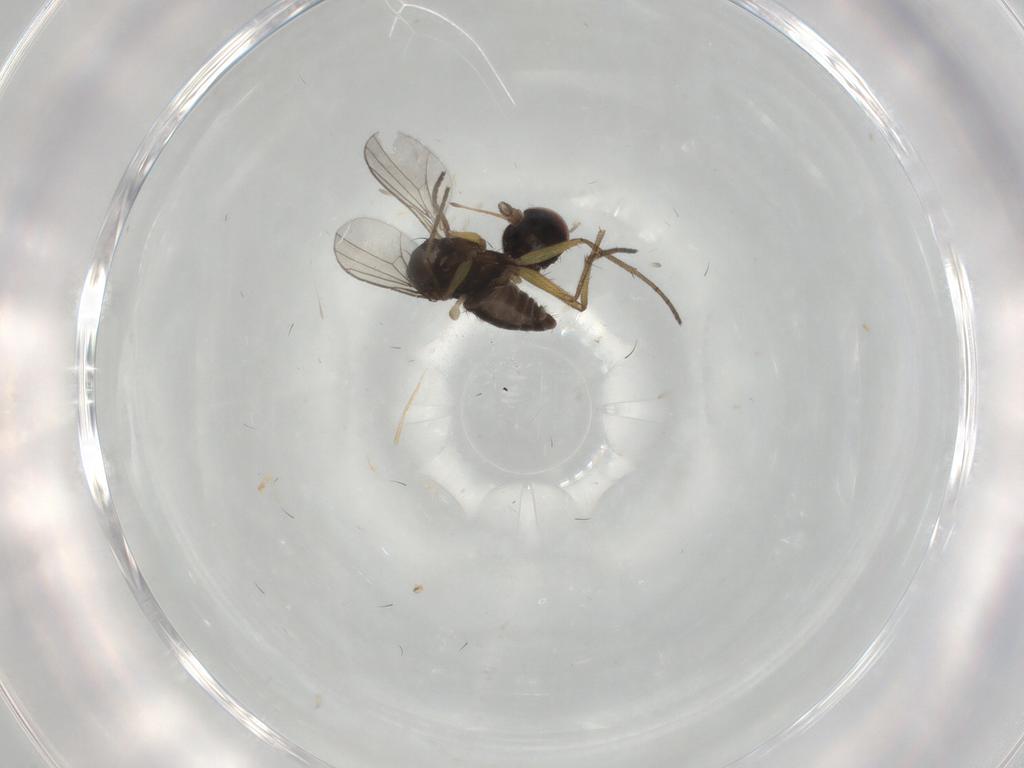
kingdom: Animalia
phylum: Arthropoda
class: Insecta
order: Diptera
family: Dolichopodidae
